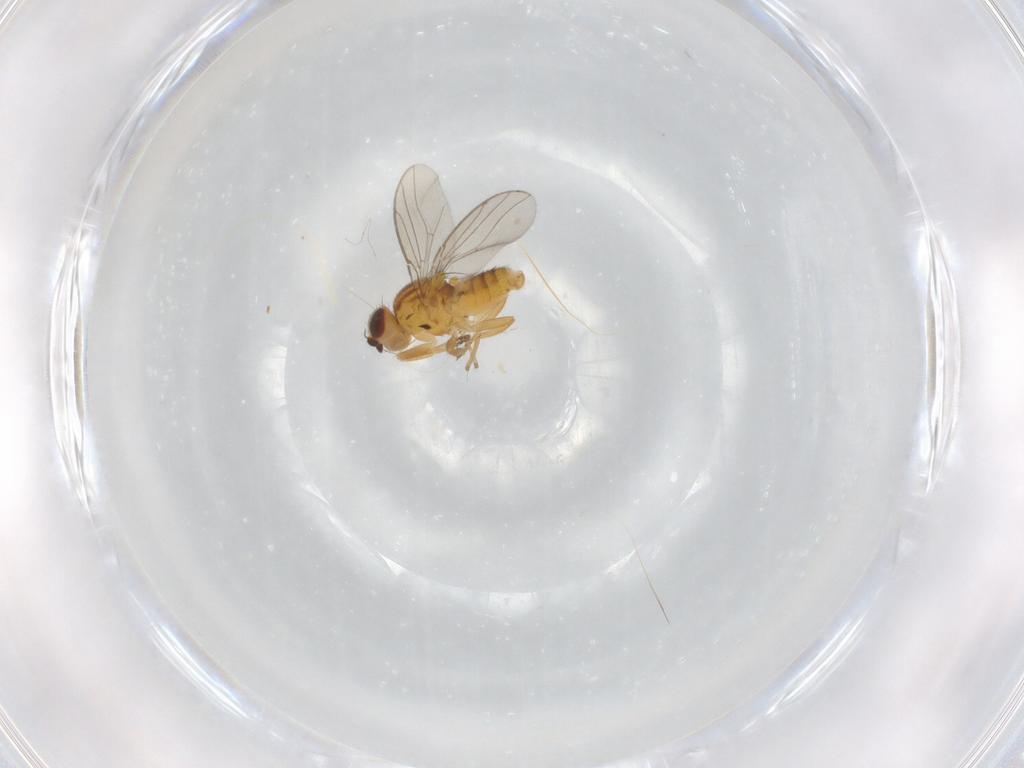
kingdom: Animalia
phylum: Arthropoda
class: Insecta
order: Diptera
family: Chloropidae
